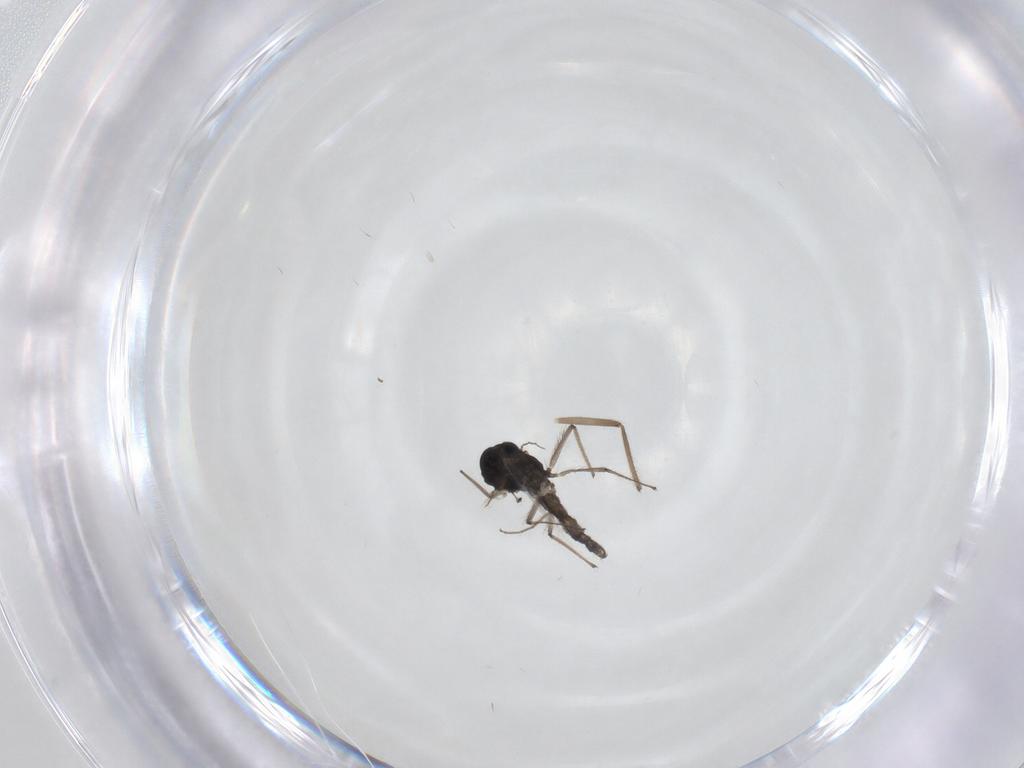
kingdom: Animalia
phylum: Arthropoda
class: Insecta
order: Diptera
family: Chironomidae
